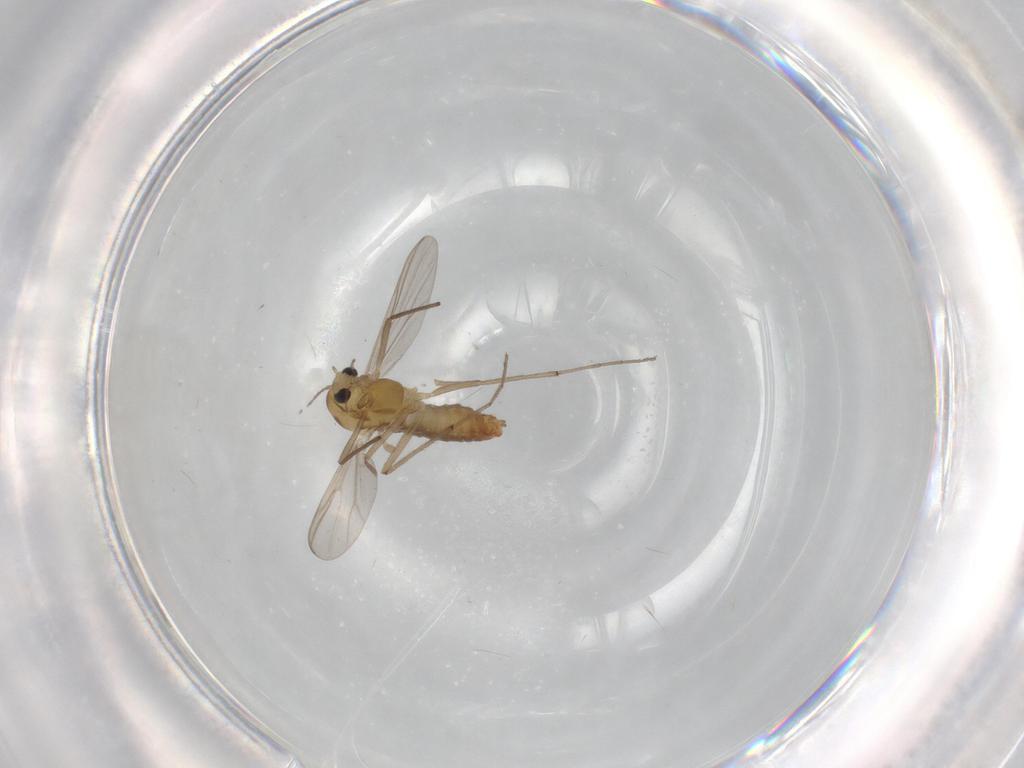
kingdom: Animalia
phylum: Arthropoda
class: Insecta
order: Diptera
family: Chironomidae
